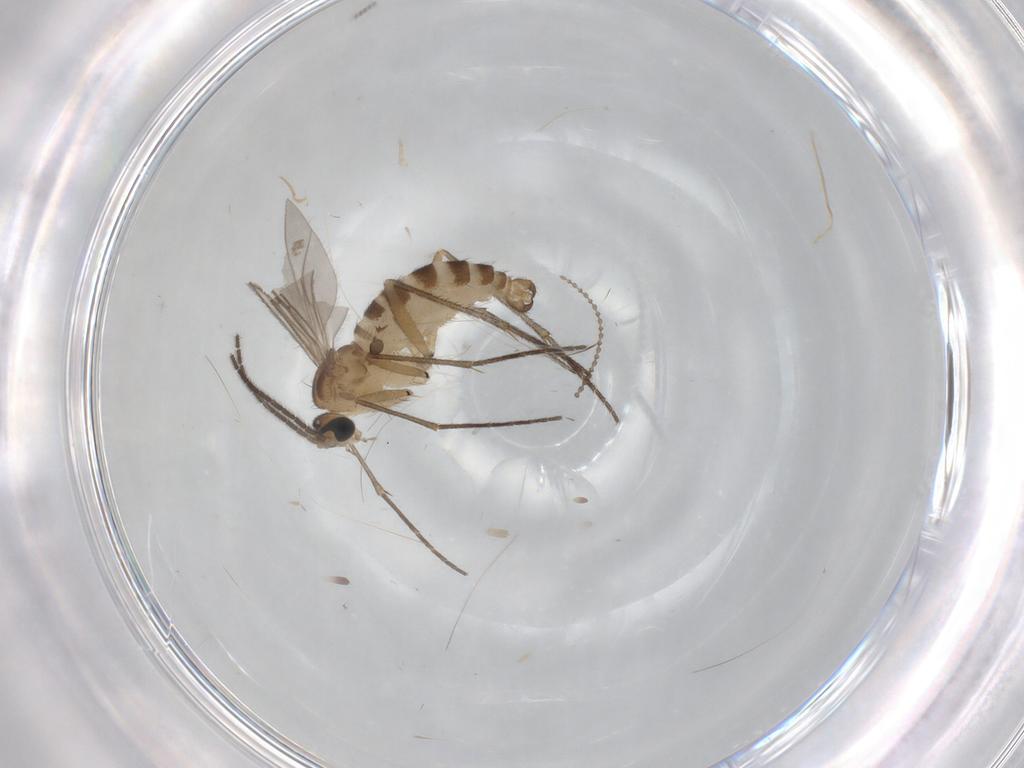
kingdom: Animalia
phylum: Arthropoda
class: Insecta
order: Diptera
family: Sciaridae
